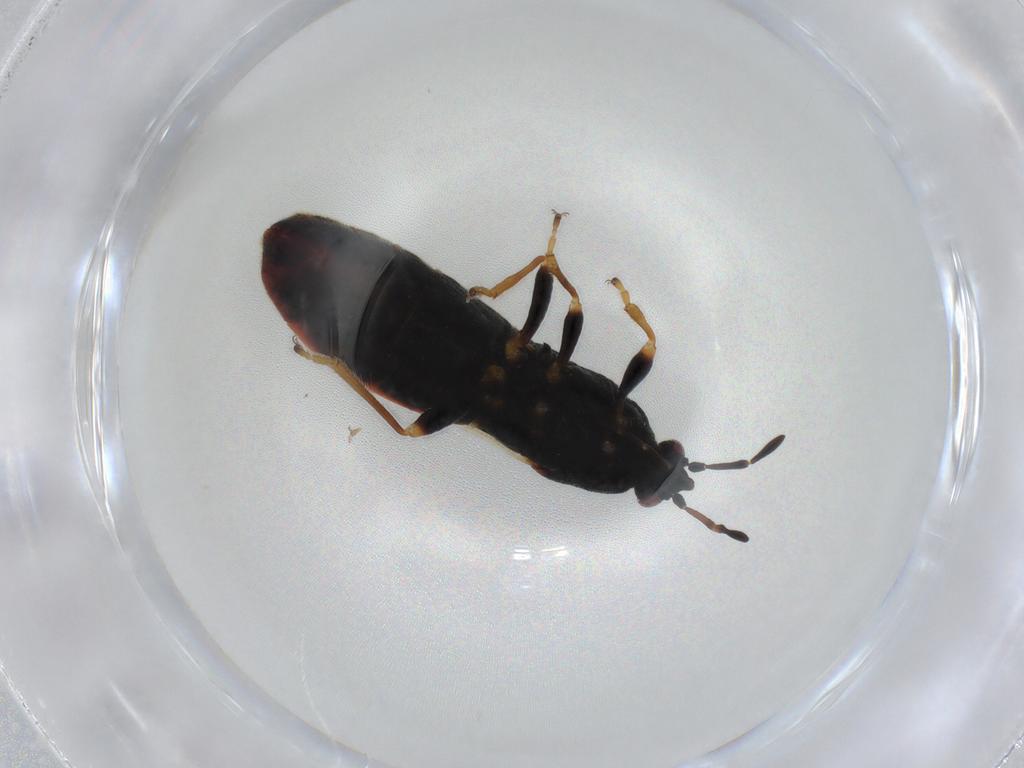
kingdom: Animalia
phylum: Arthropoda
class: Insecta
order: Hemiptera
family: Blissidae
